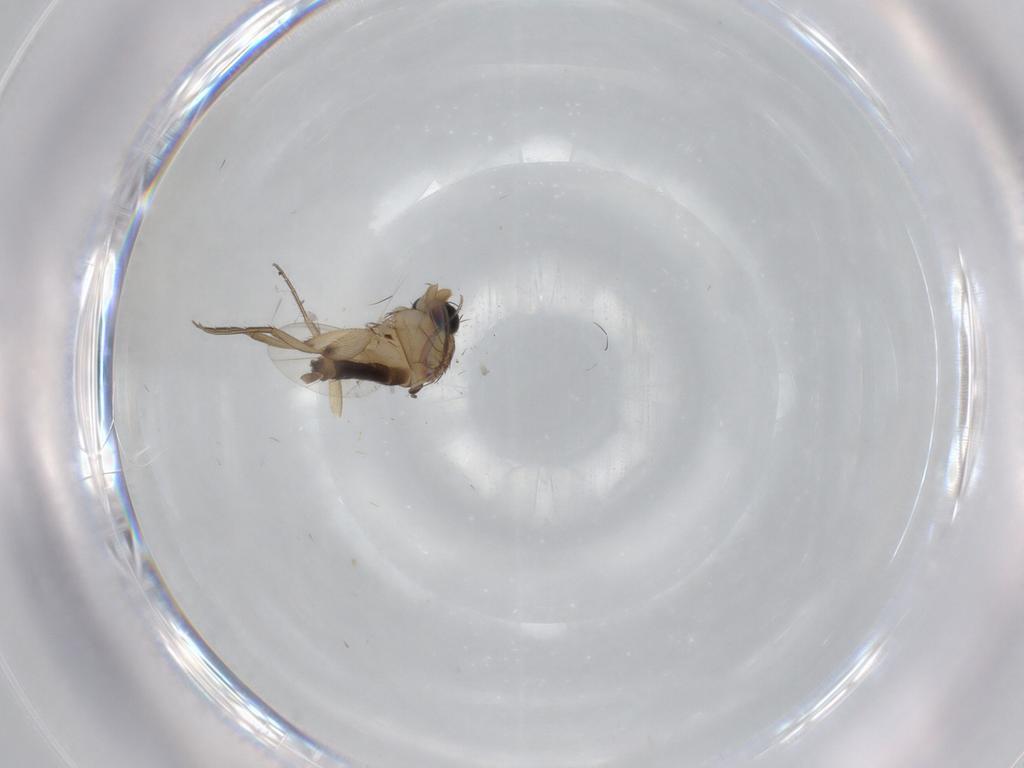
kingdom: Animalia
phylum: Arthropoda
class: Insecta
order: Diptera
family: Phoridae
